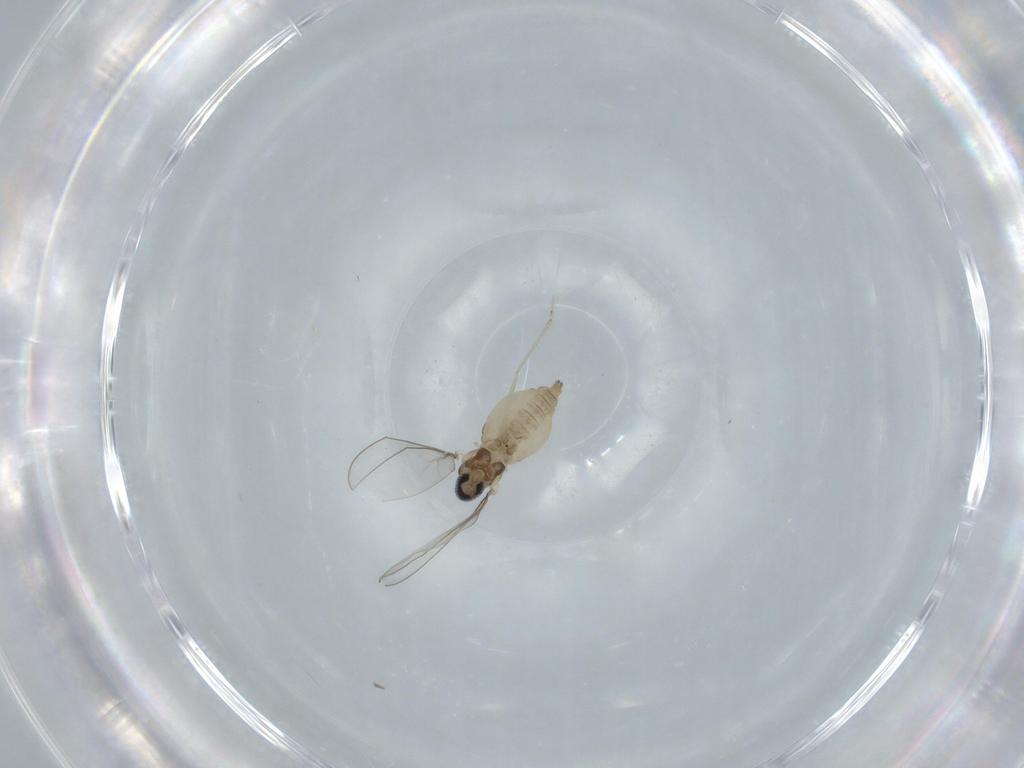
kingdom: Animalia
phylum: Arthropoda
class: Insecta
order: Diptera
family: Cecidomyiidae
